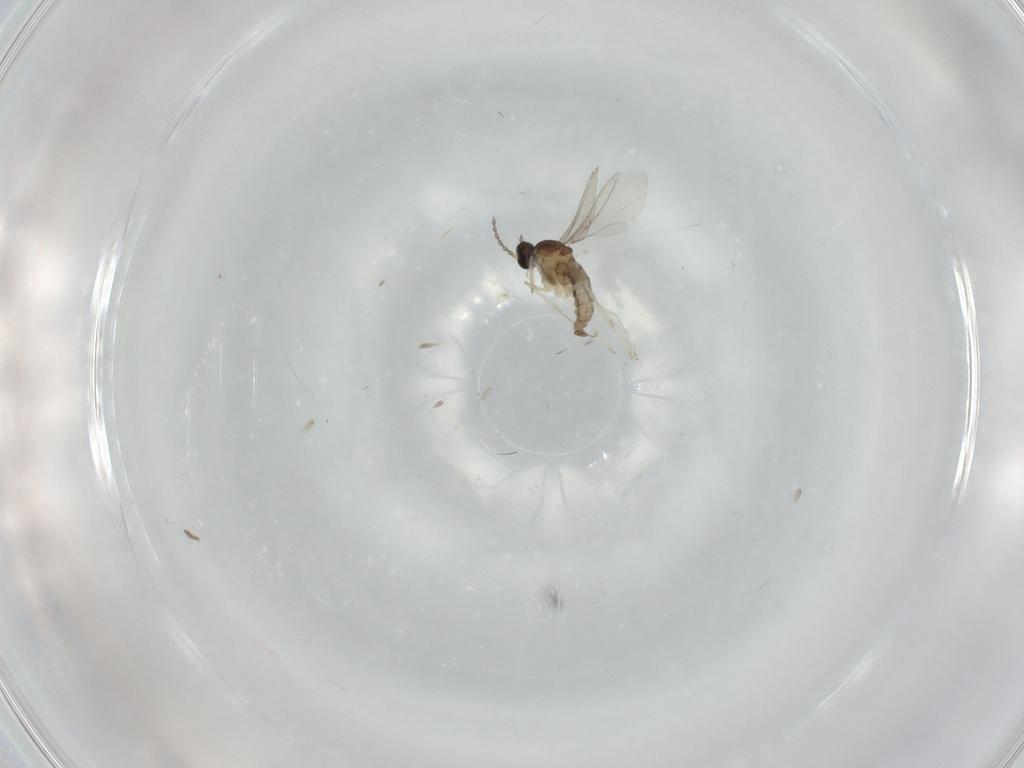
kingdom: Animalia
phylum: Arthropoda
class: Insecta
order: Diptera
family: Cecidomyiidae
